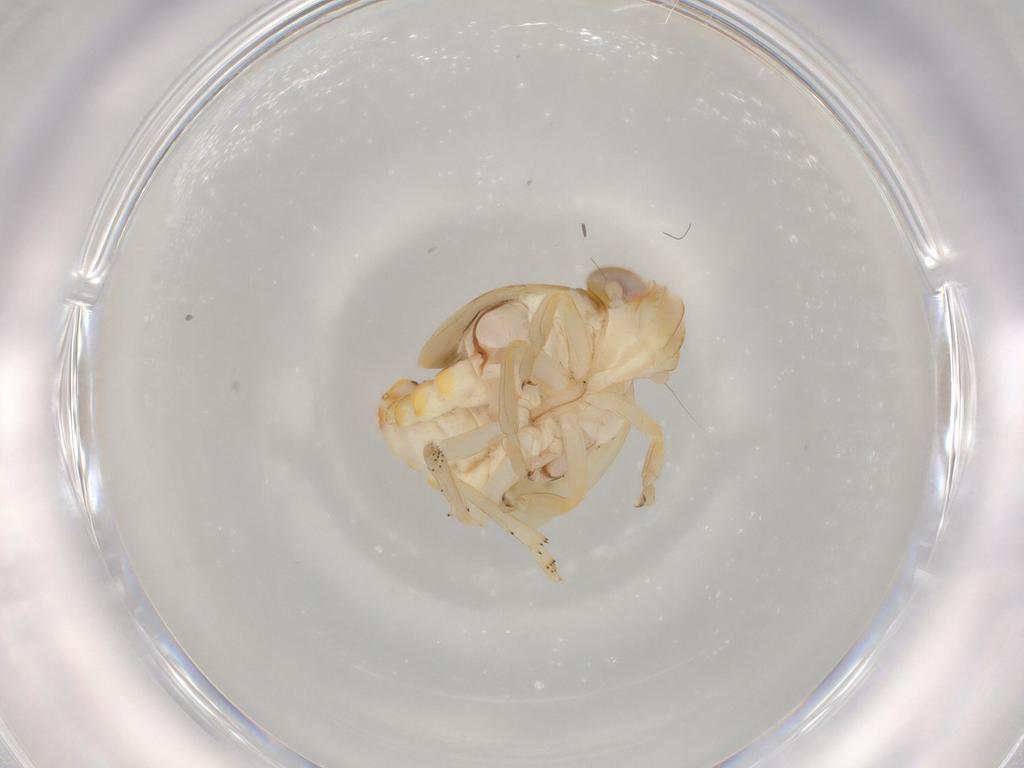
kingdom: Animalia
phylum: Arthropoda
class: Insecta
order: Hemiptera
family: Nogodinidae
